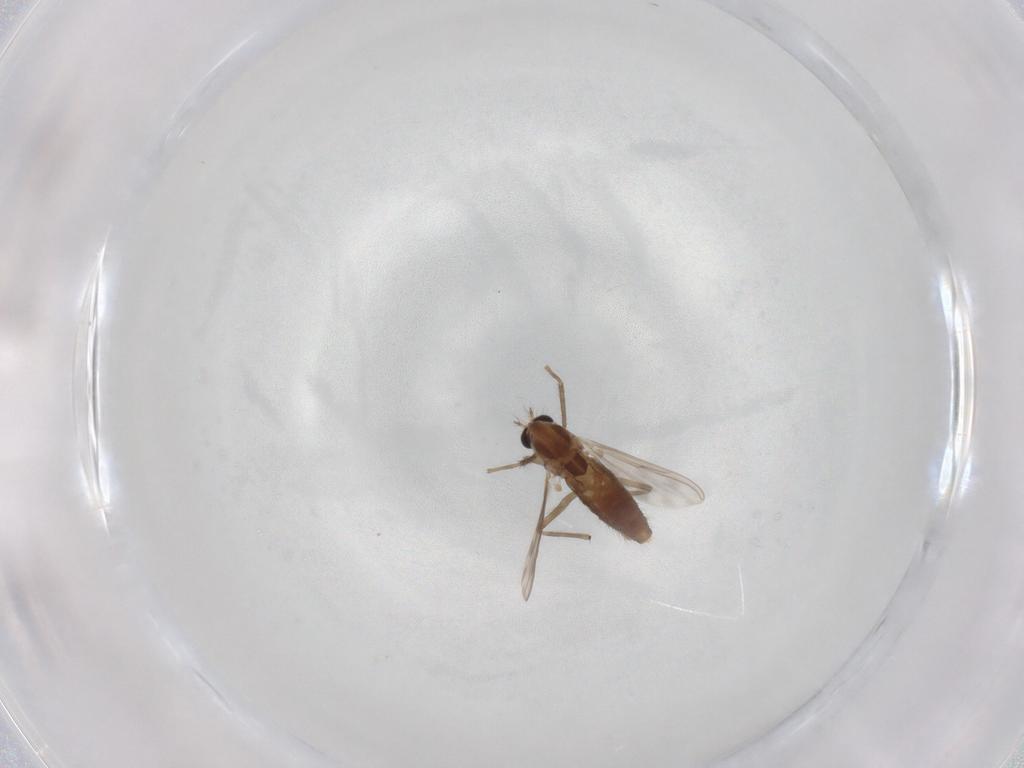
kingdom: Animalia
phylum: Arthropoda
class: Insecta
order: Diptera
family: Chironomidae
